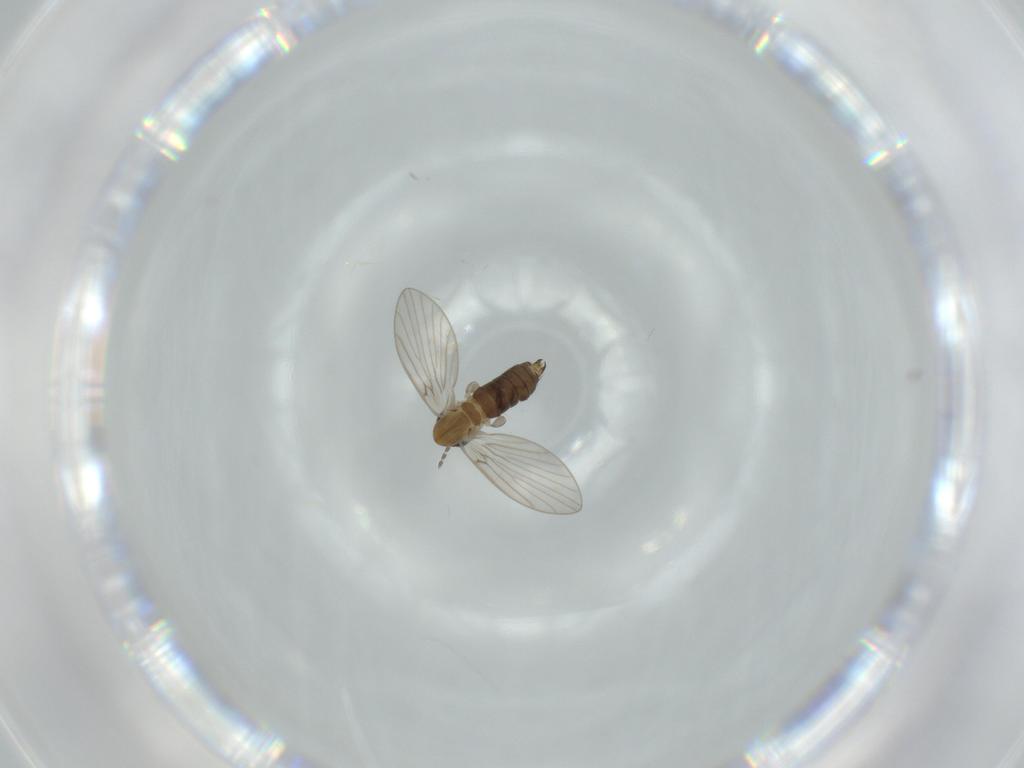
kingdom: Animalia
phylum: Arthropoda
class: Insecta
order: Diptera
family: Psychodidae
